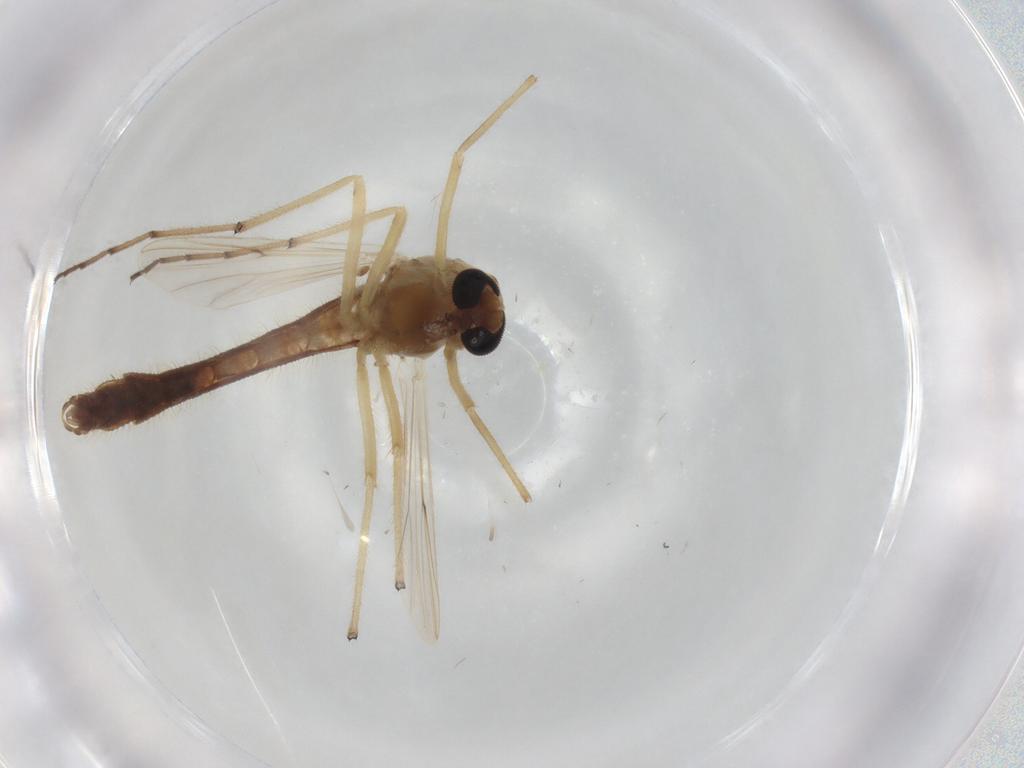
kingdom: Animalia
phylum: Arthropoda
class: Insecta
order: Diptera
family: Chironomidae
